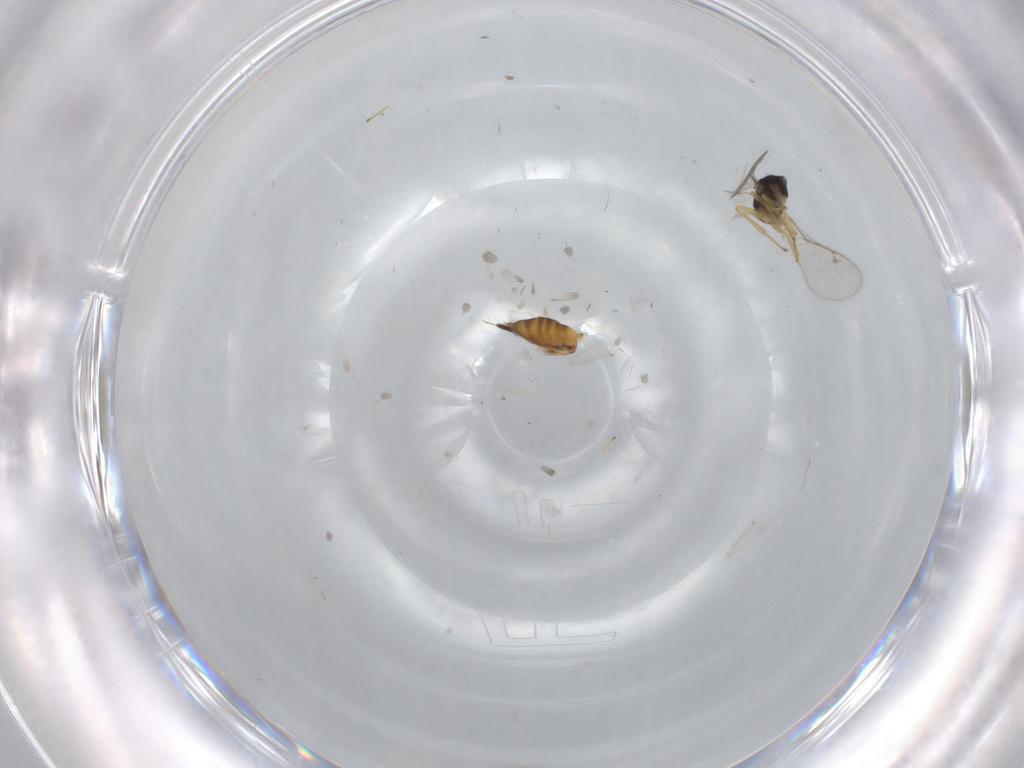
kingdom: Animalia
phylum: Arthropoda
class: Insecta
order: Hymenoptera
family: Pirenidae
